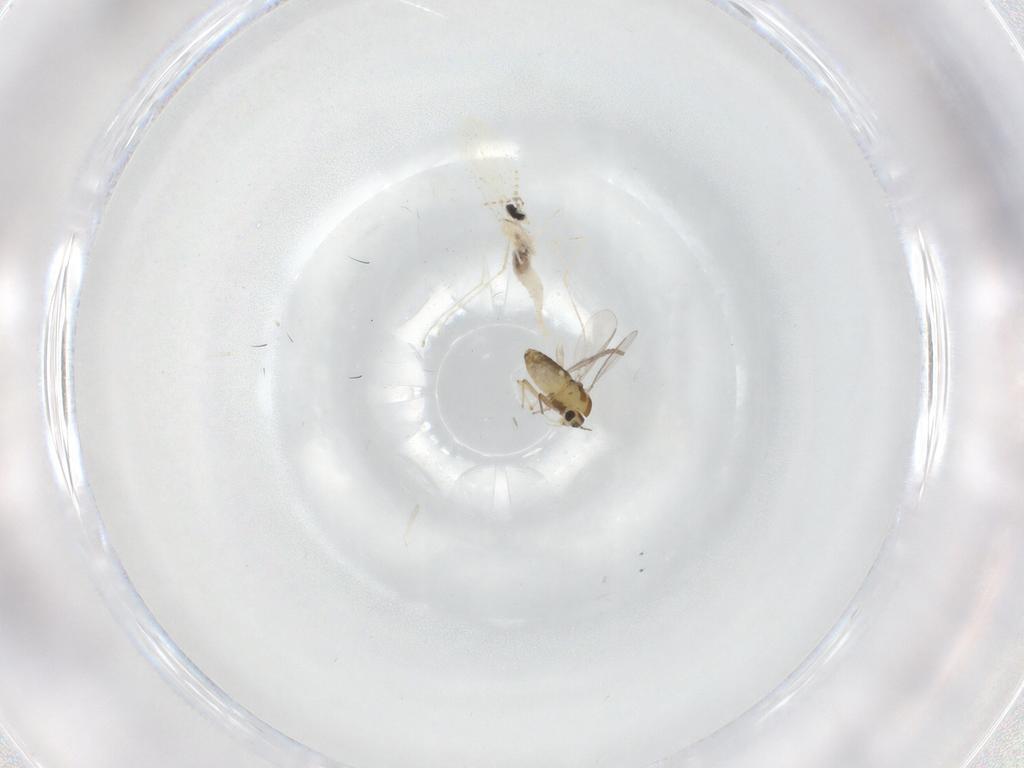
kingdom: Animalia
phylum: Arthropoda
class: Insecta
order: Diptera
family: Chironomidae
